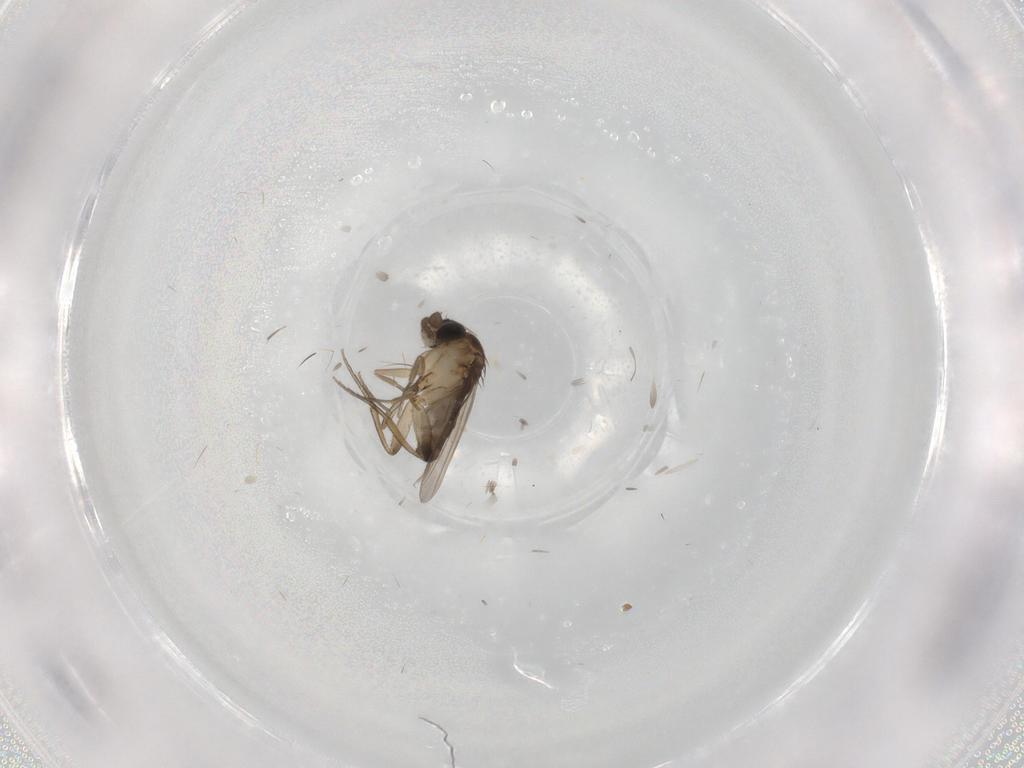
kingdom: Animalia
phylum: Arthropoda
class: Insecta
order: Diptera
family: Phoridae
